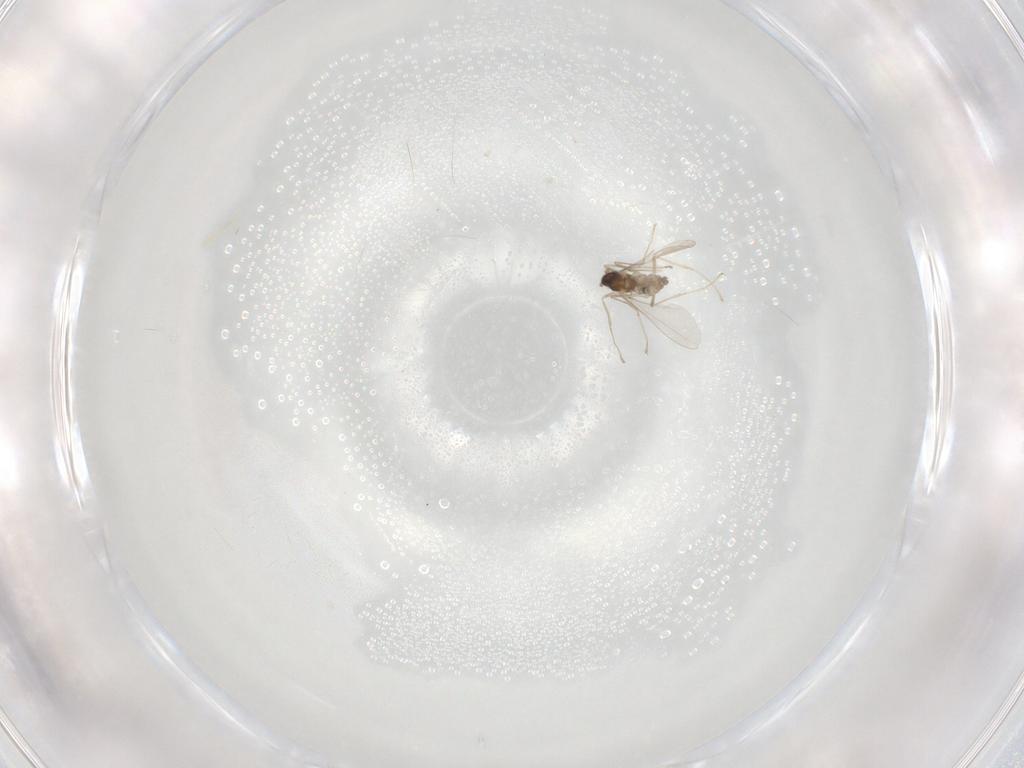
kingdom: Animalia
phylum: Arthropoda
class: Insecta
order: Diptera
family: Cecidomyiidae
